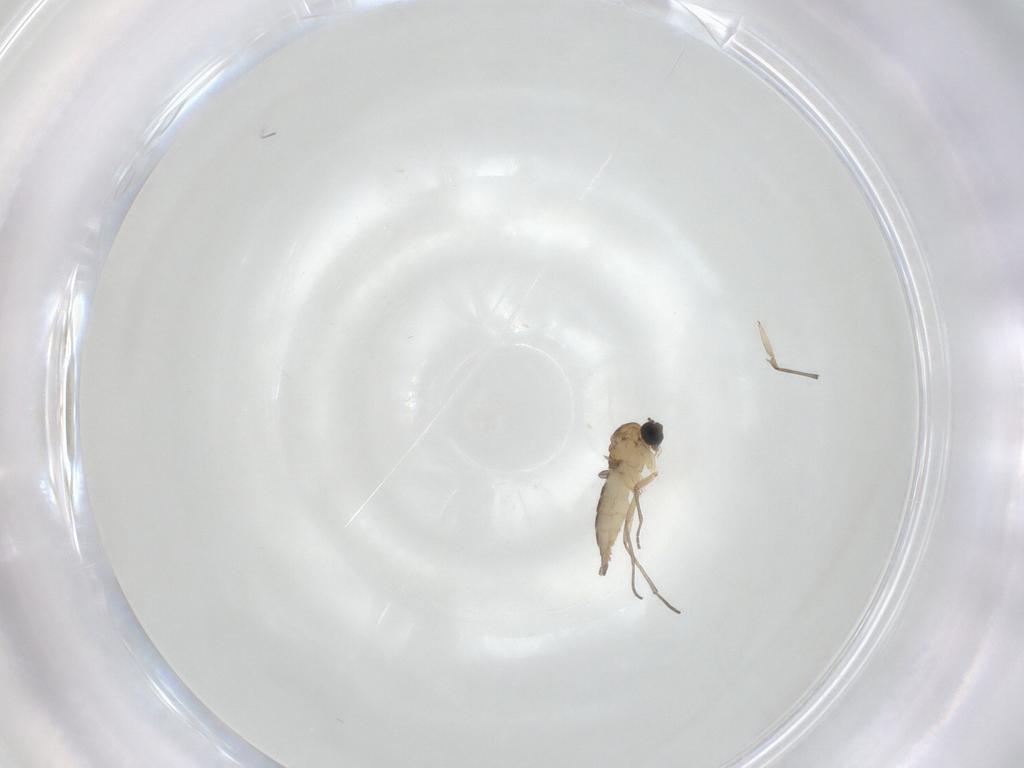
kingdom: Animalia
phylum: Arthropoda
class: Insecta
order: Diptera
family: Sciaridae
